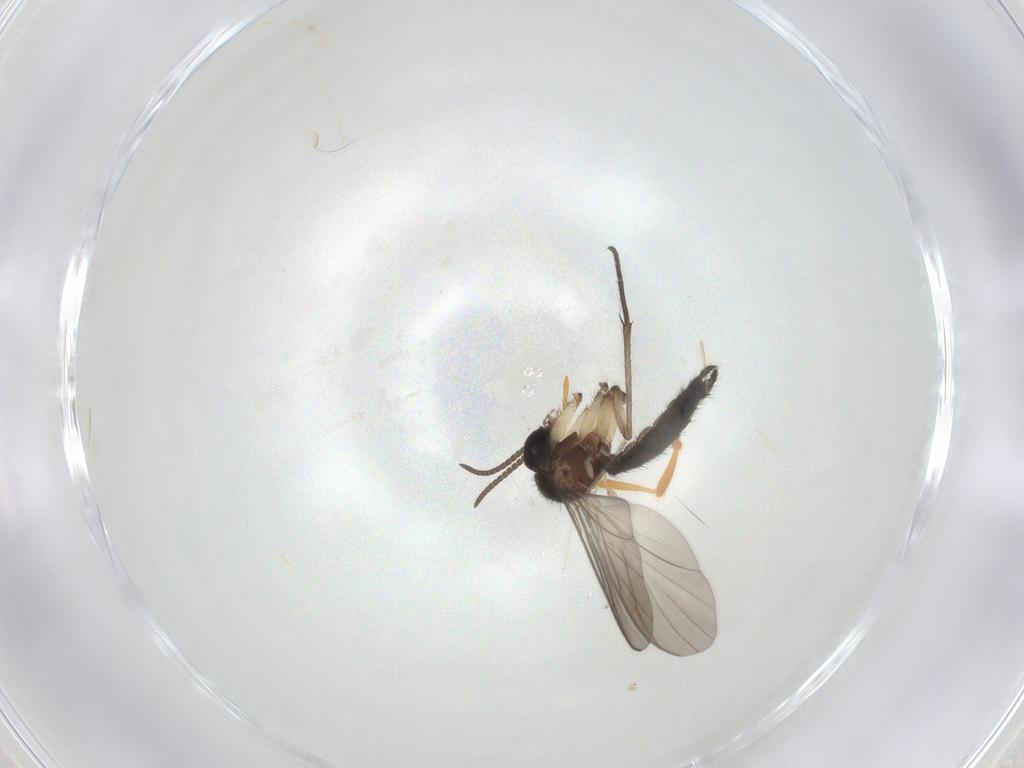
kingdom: Animalia
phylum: Arthropoda
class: Insecta
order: Diptera
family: Keroplatidae
